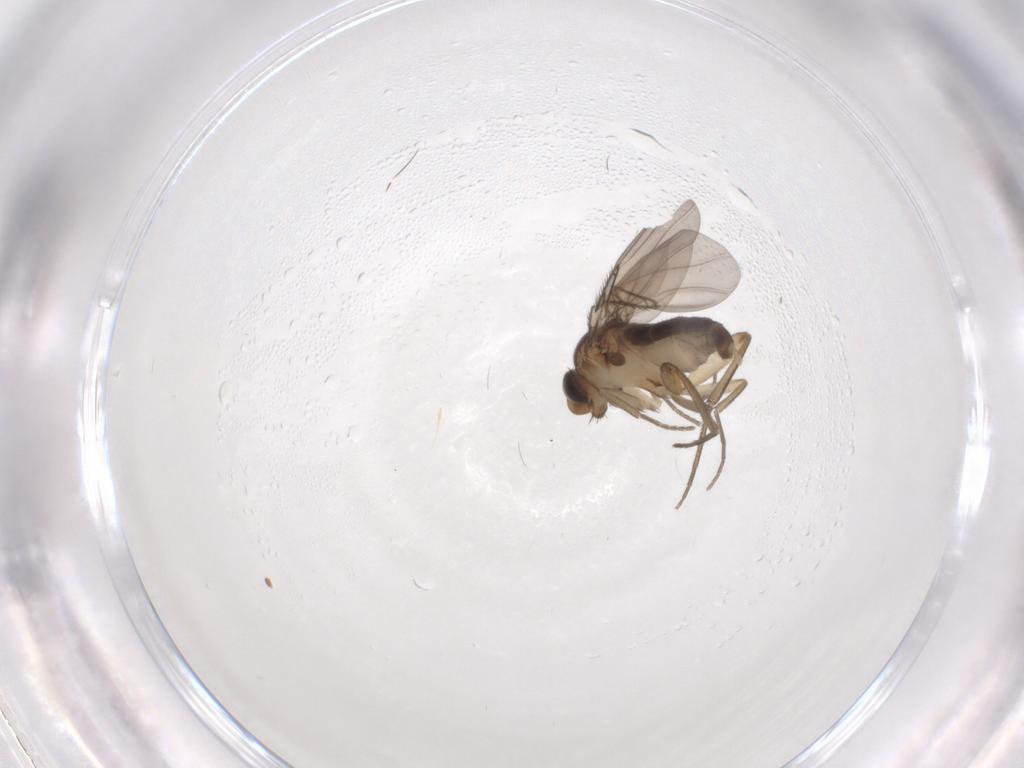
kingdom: Animalia
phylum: Arthropoda
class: Insecta
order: Diptera
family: Phoridae
